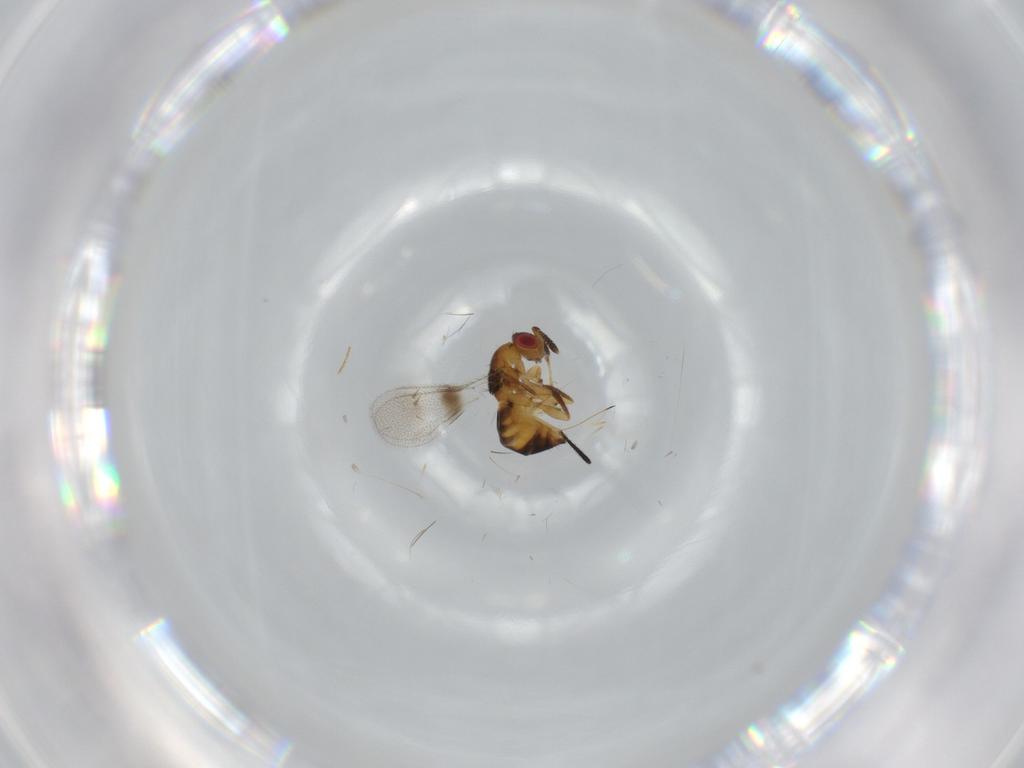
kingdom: Animalia
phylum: Arthropoda
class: Insecta
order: Hymenoptera
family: Torymidae
